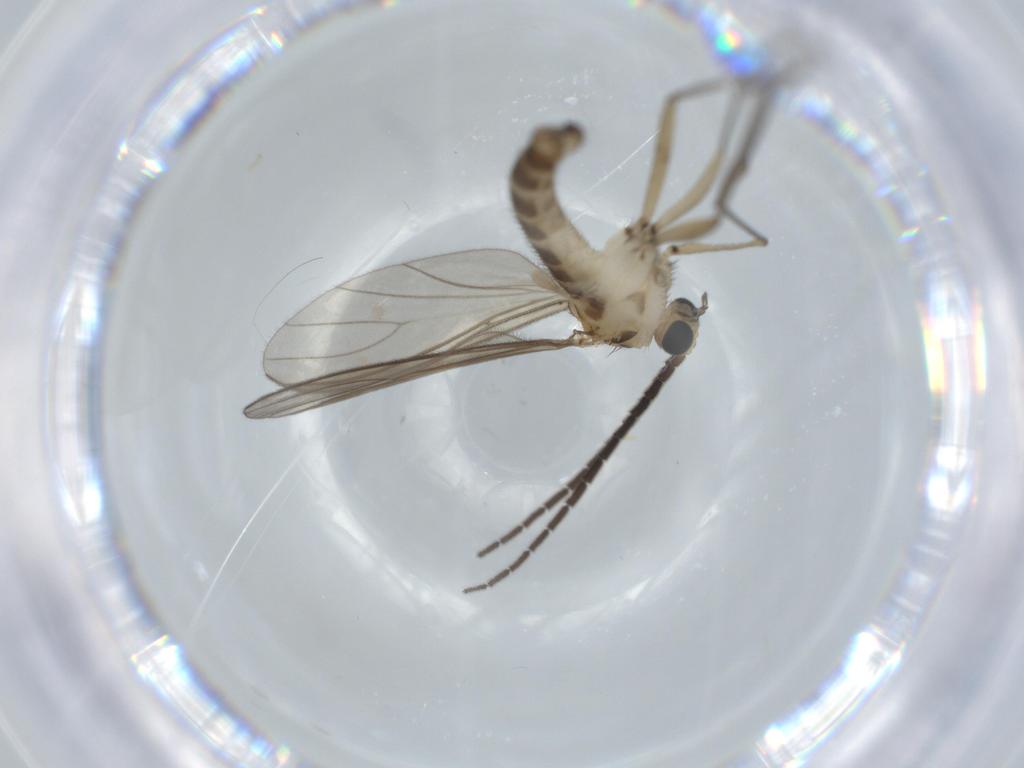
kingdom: Animalia
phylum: Arthropoda
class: Insecta
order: Diptera
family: Sciaridae
